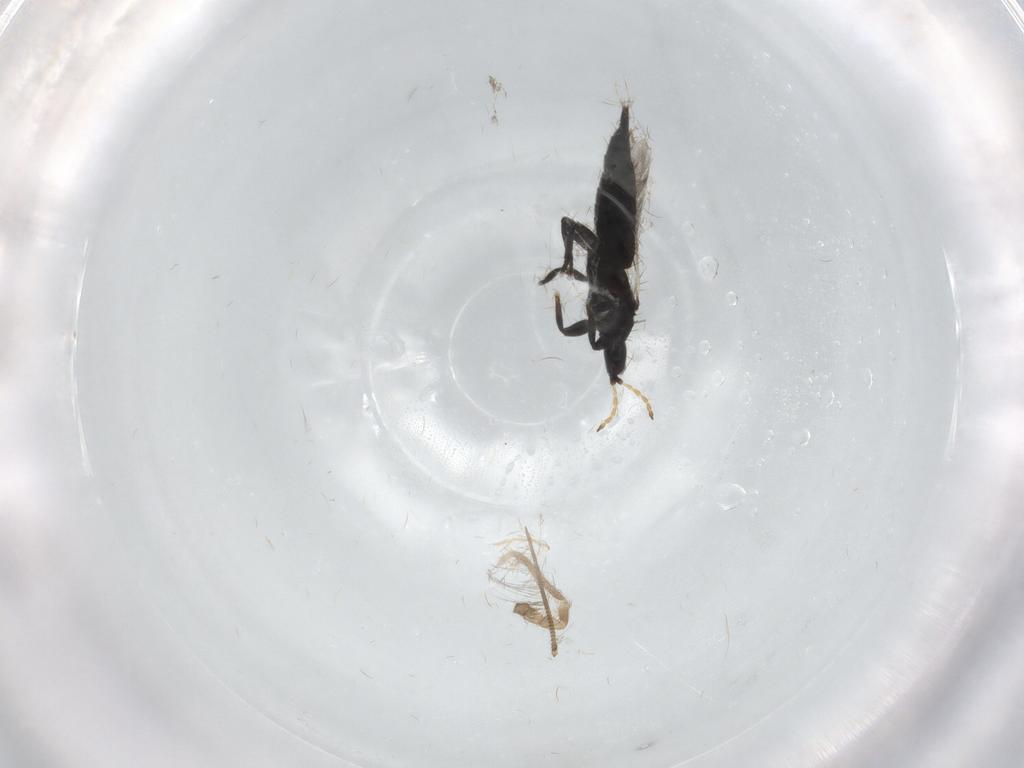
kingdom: Animalia
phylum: Arthropoda
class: Insecta
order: Thysanoptera
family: Phlaeothripidae
